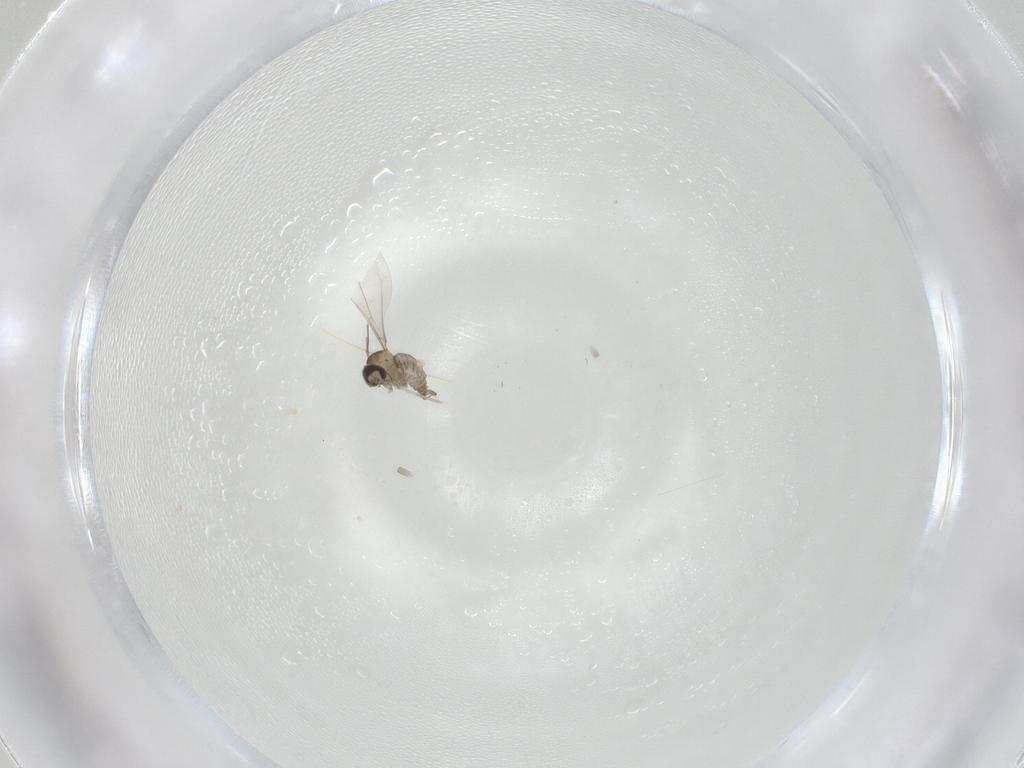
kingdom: Animalia
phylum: Arthropoda
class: Insecta
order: Diptera
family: Cecidomyiidae
